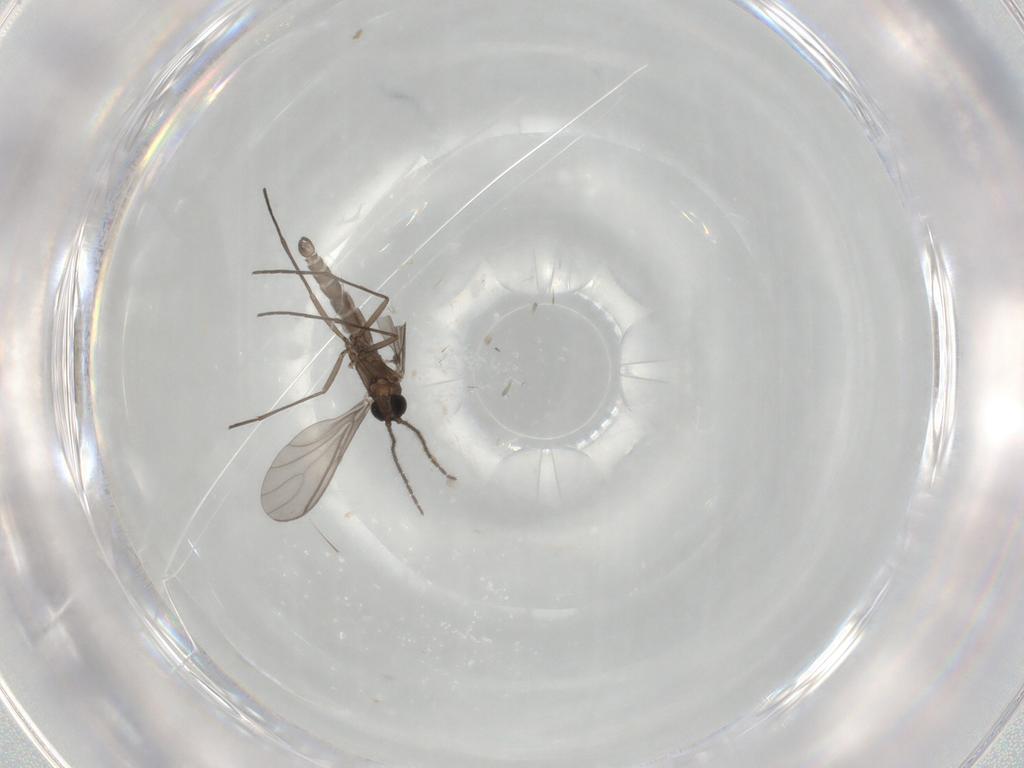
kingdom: Animalia
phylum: Arthropoda
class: Insecta
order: Diptera
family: Sciaridae
